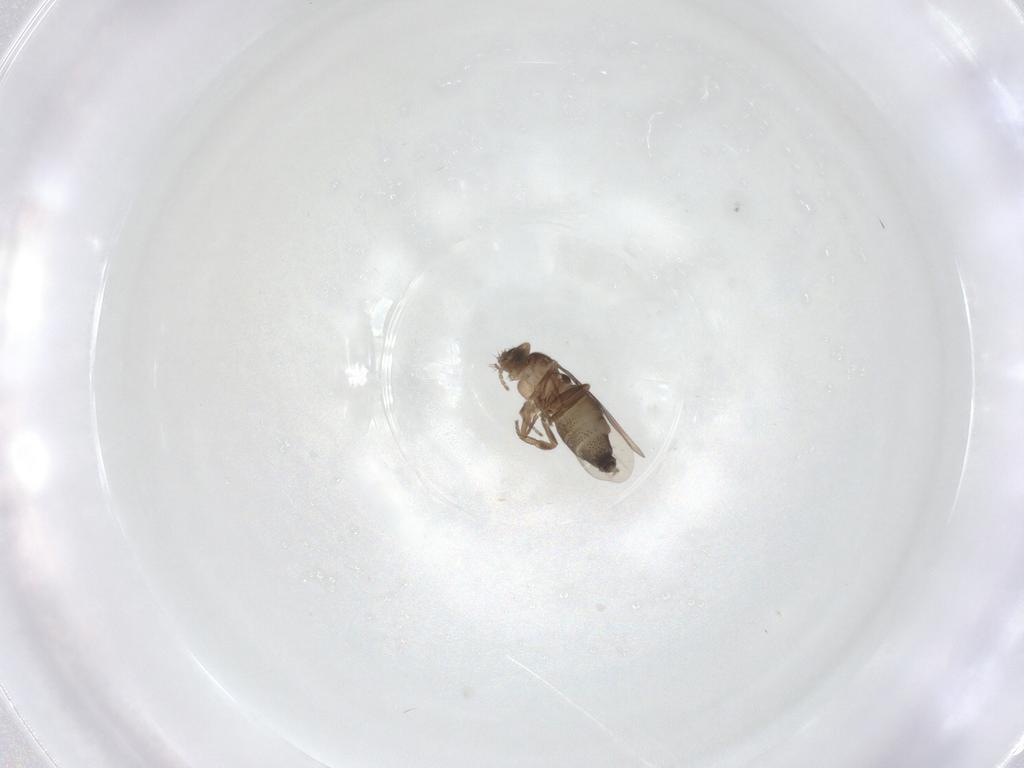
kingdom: Animalia
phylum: Arthropoda
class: Insecta
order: Diptera
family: Phoridae
